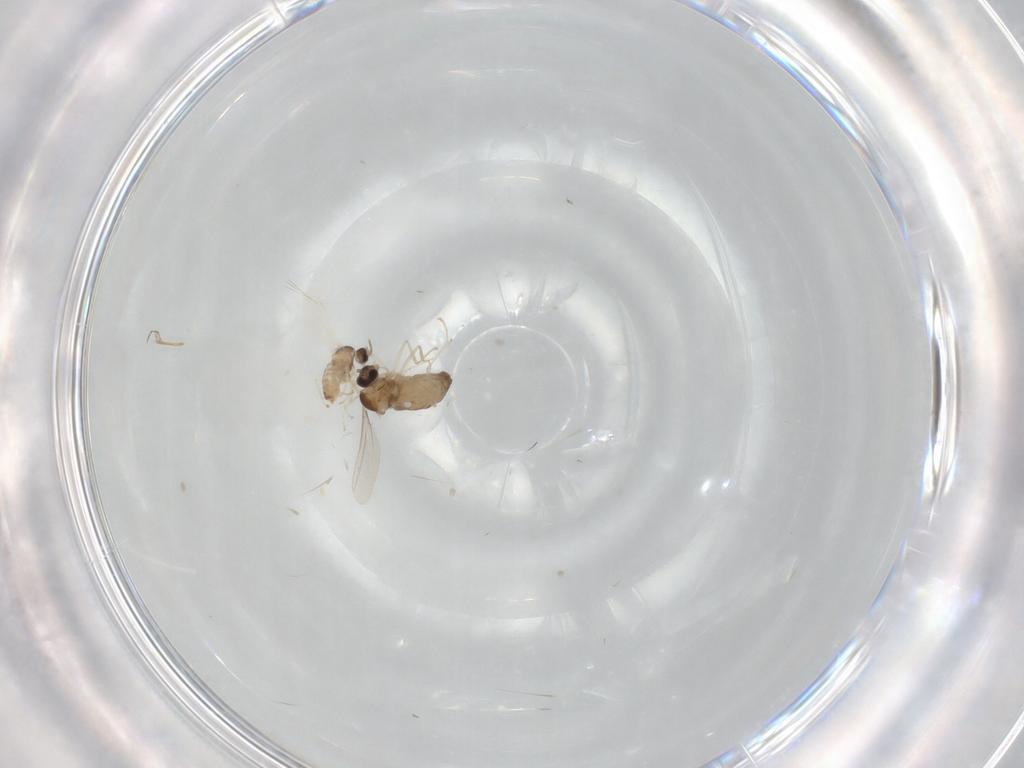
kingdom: Animalia
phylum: Arthropoda
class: Insecta
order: Diptera
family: Cecidomyiidae
